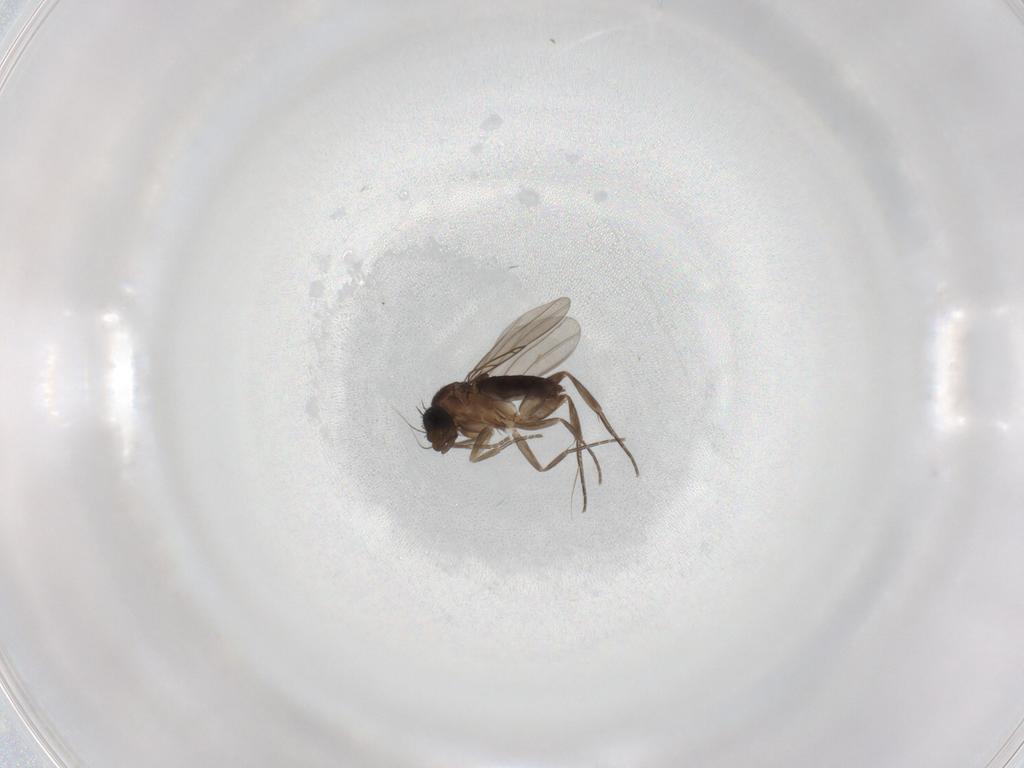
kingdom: Animalia
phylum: Arthropoda
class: Insecta
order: Diptera
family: Phoridae
